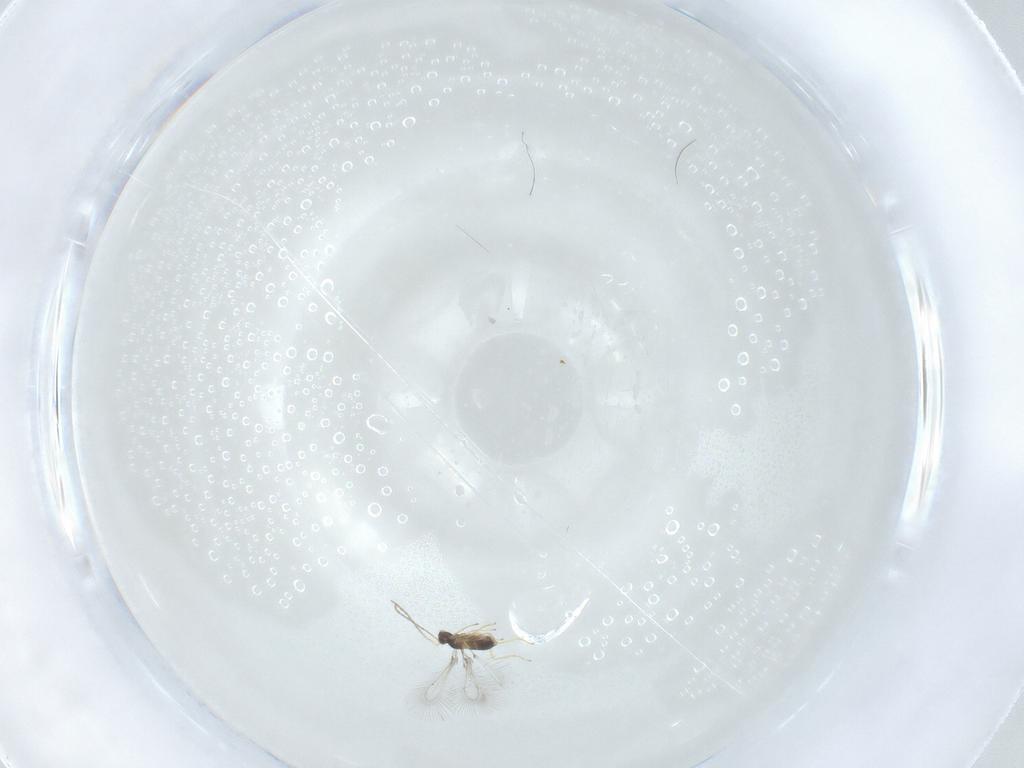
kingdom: Animalia
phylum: Arthropoda
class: Insecta
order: Hymenoptera
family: Mymaridae
